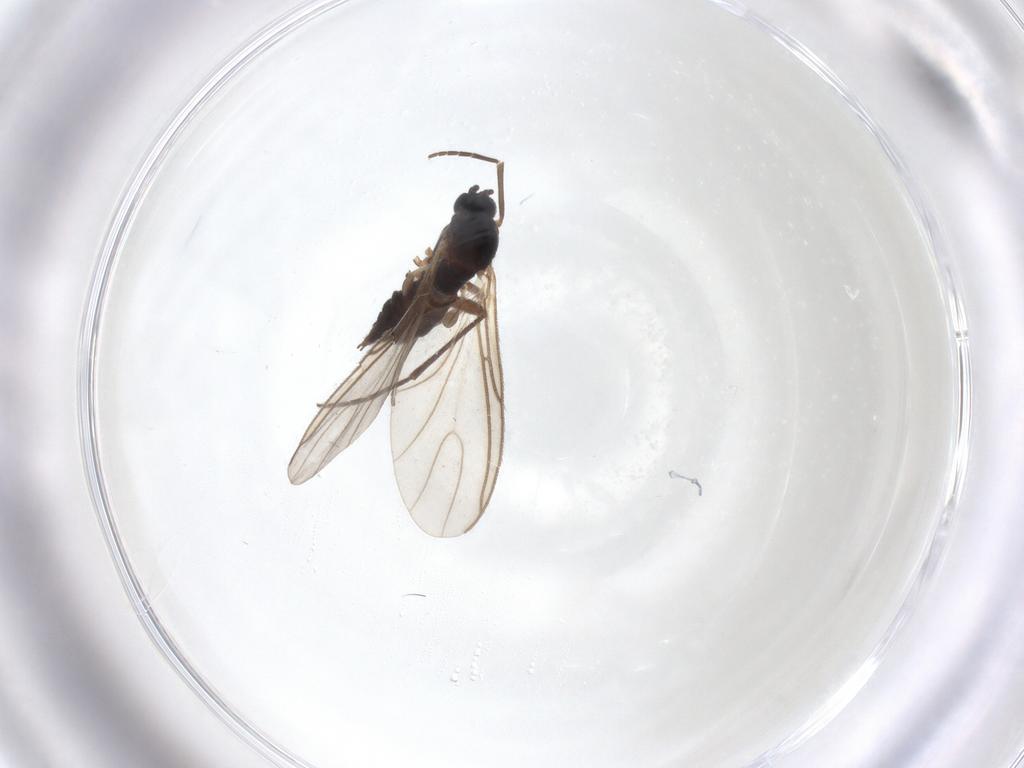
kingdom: Animalia
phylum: Arthropoda
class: Insecta
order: Diptera
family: Sciaridae
